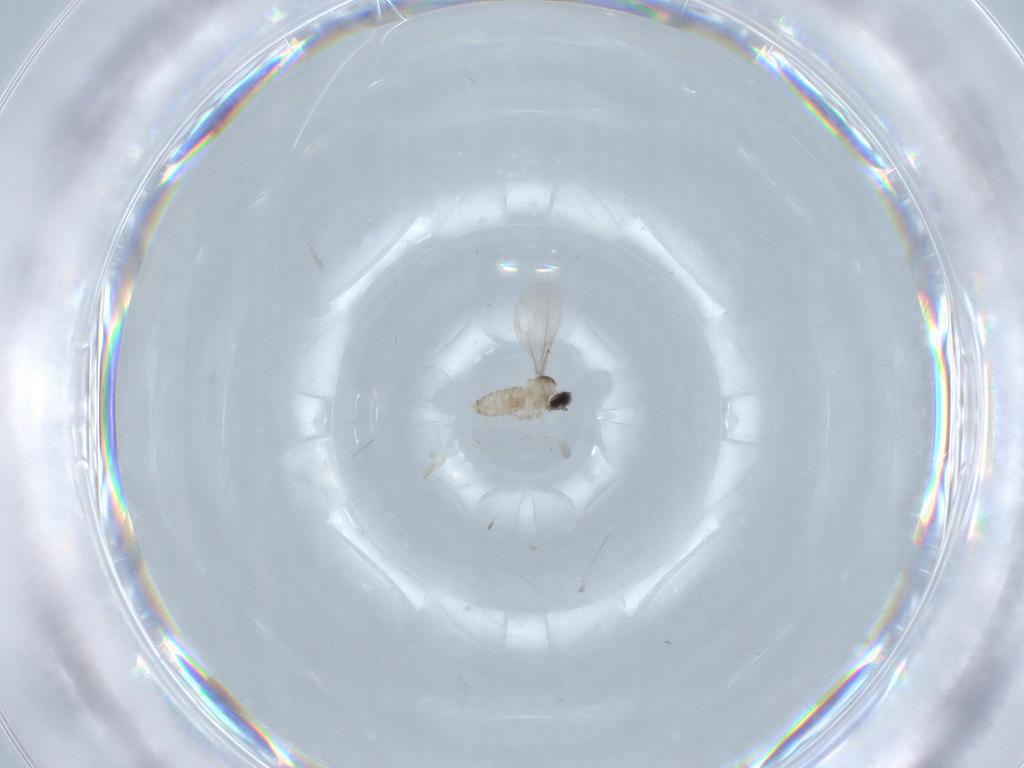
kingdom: Animalia
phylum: Arthropoda
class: Insecta
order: Diptera
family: Cecidomyiidae
